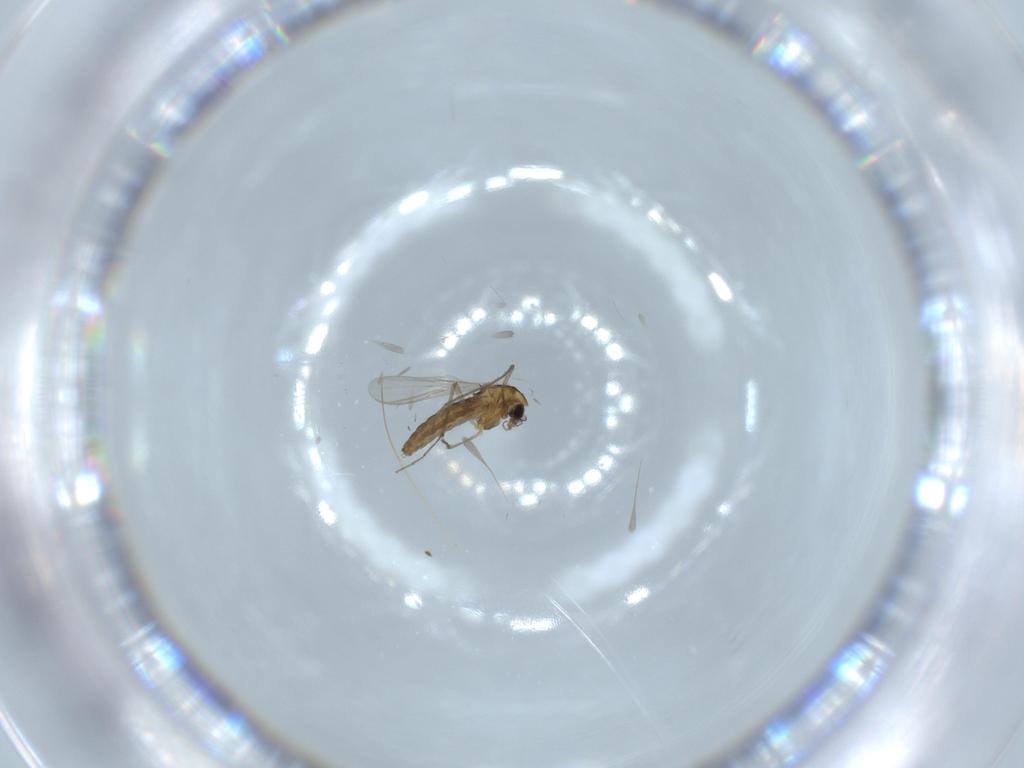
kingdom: Animalia
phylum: Arthropoda
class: Insecta
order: Diptera
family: Chironomidae
